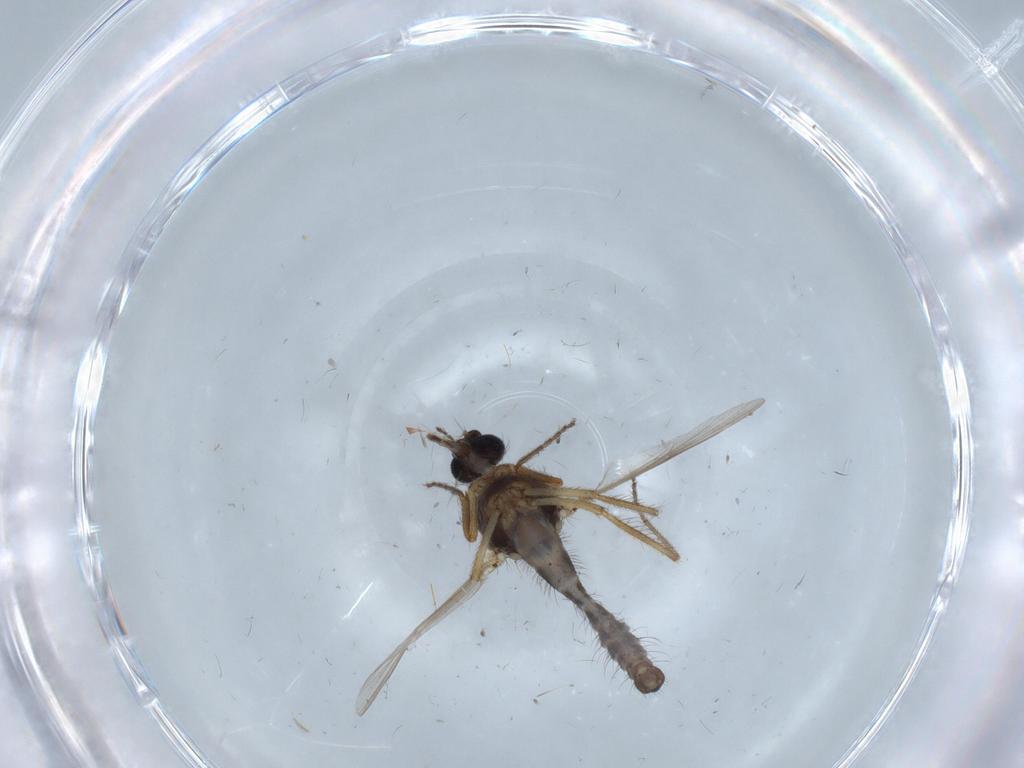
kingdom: Animalia
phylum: Arthropoda
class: Insecta
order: Diptera
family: Ceratopogonidae
